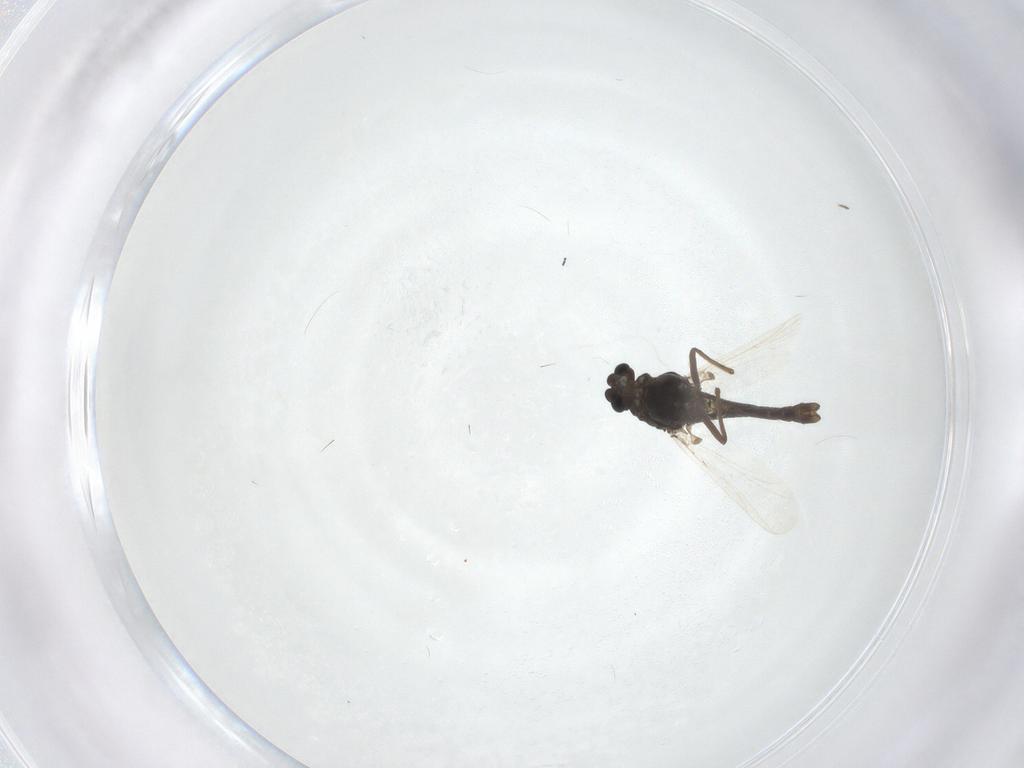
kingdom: Animalia
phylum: Arthropoda
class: Insecta
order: Diptera
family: Chironomidae
